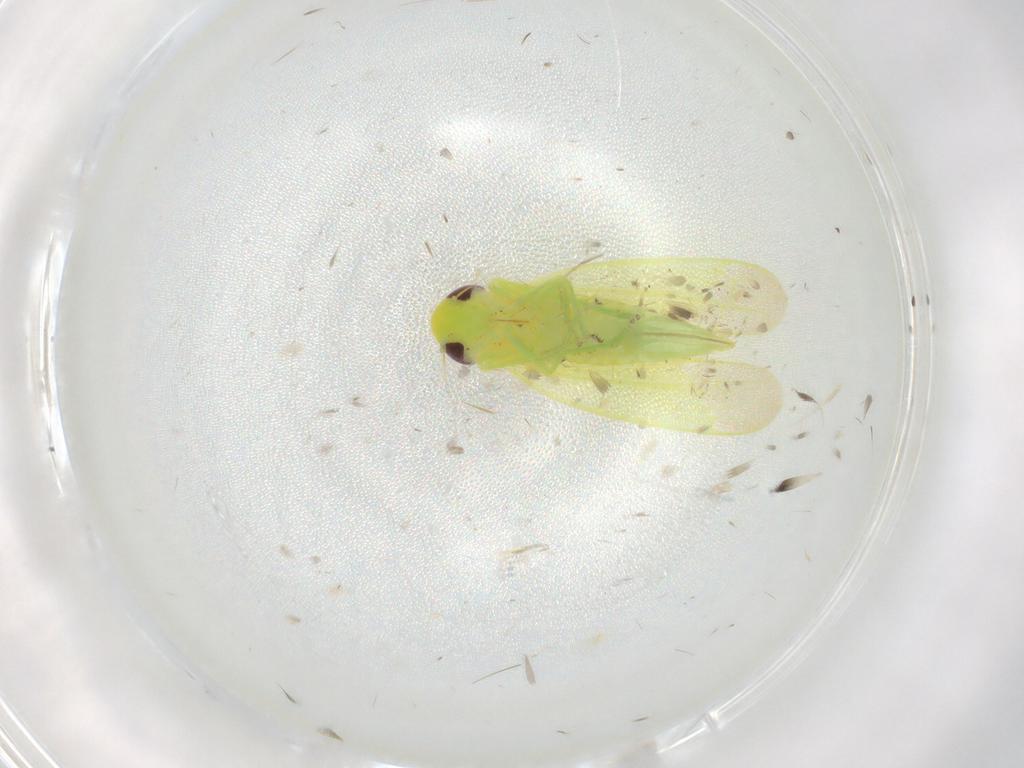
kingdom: Animalia
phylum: Arthropoda
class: Insecta
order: Hemiptera
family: Cicadellidae
